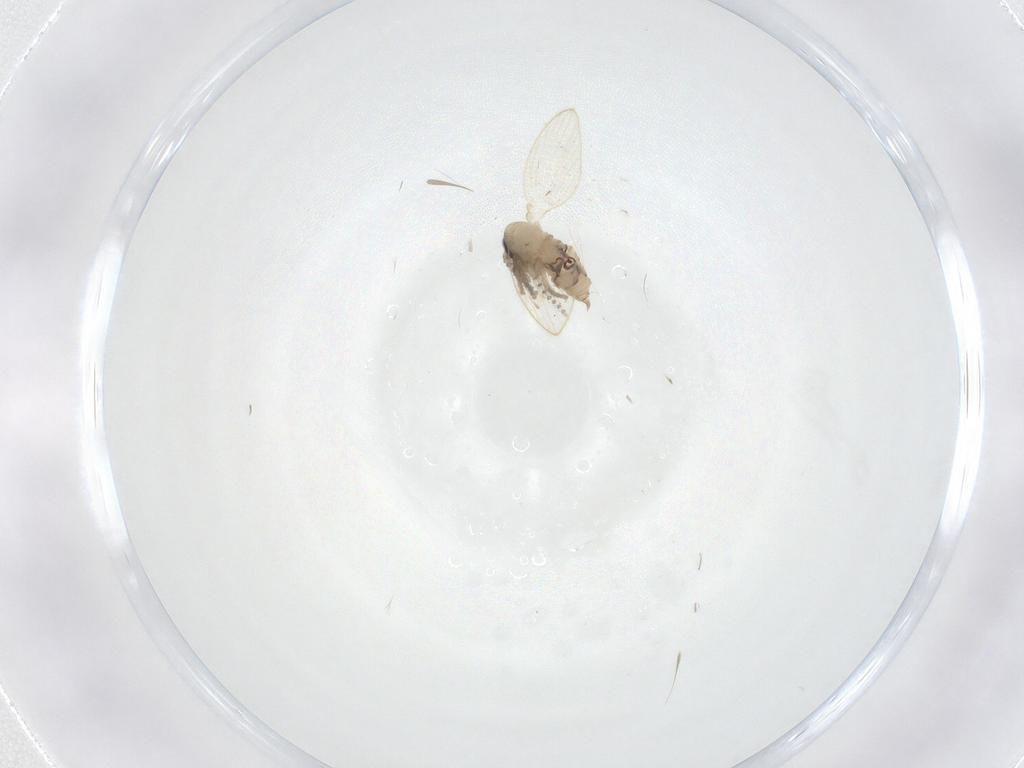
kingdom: Animalia
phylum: Arthropoda
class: Insecta
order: Diptera
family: Psychodidae
